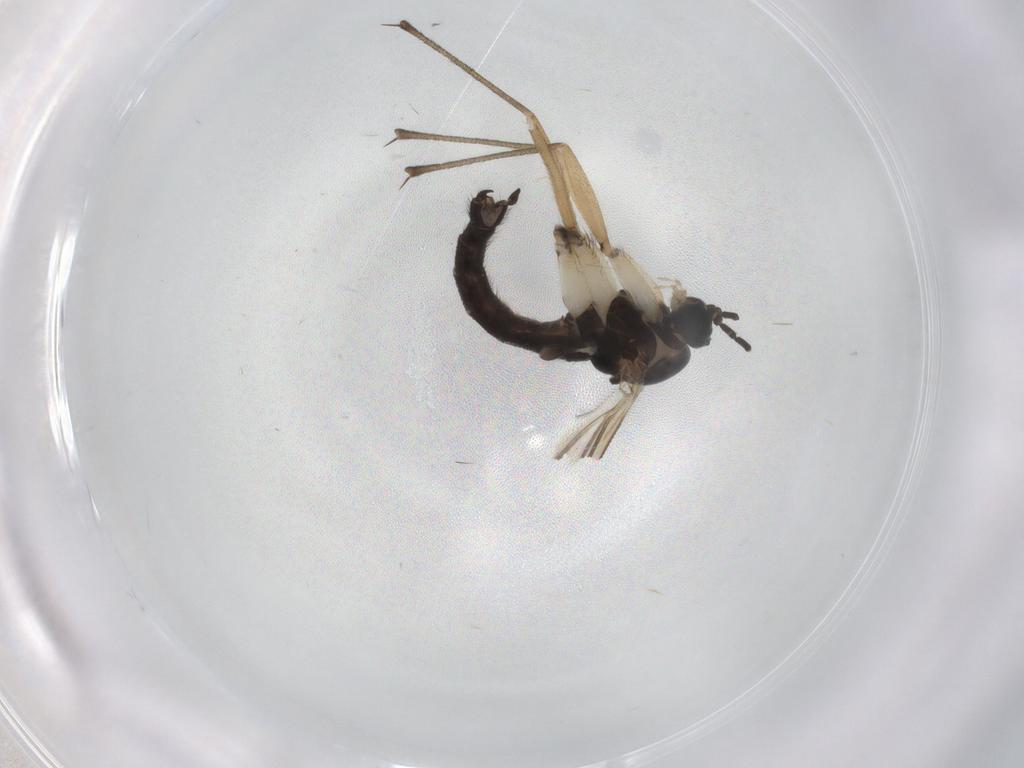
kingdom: Animalia
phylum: Arthropoda
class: Insecta
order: Diptera
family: Sciaridae
